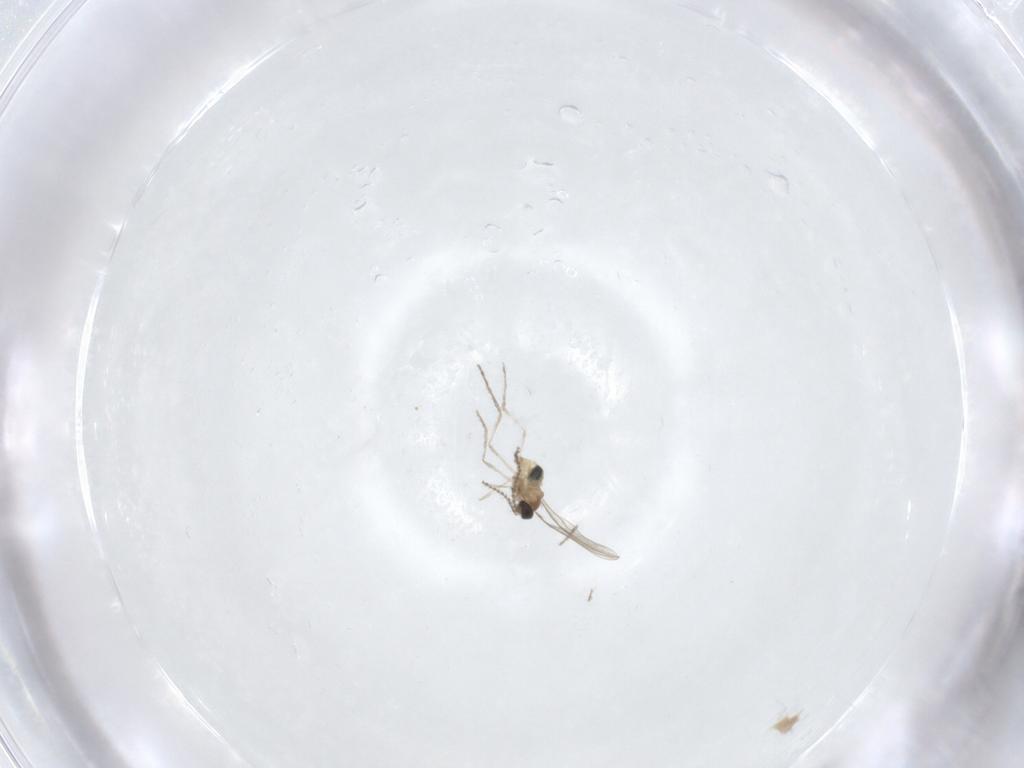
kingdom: Animalia
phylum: Arthropoda
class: Insecta
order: Diptera
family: Cecidomyiidae
